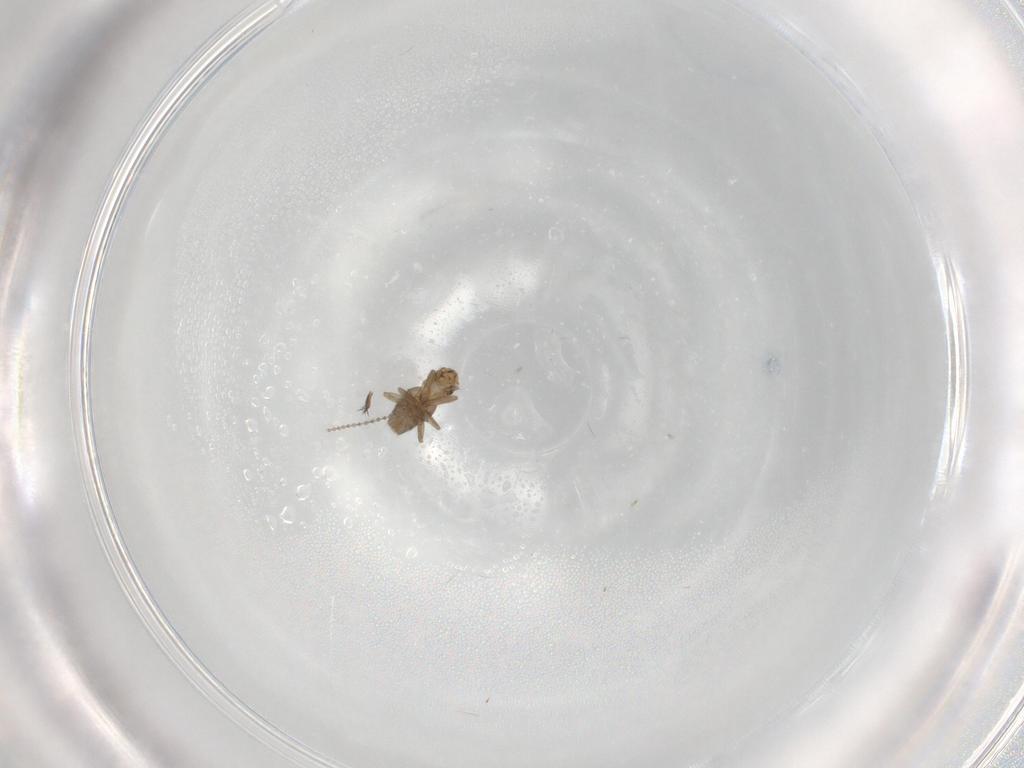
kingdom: Animalia
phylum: Arthropoda
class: Insecta
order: Diptera
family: Cecidomyiidae
